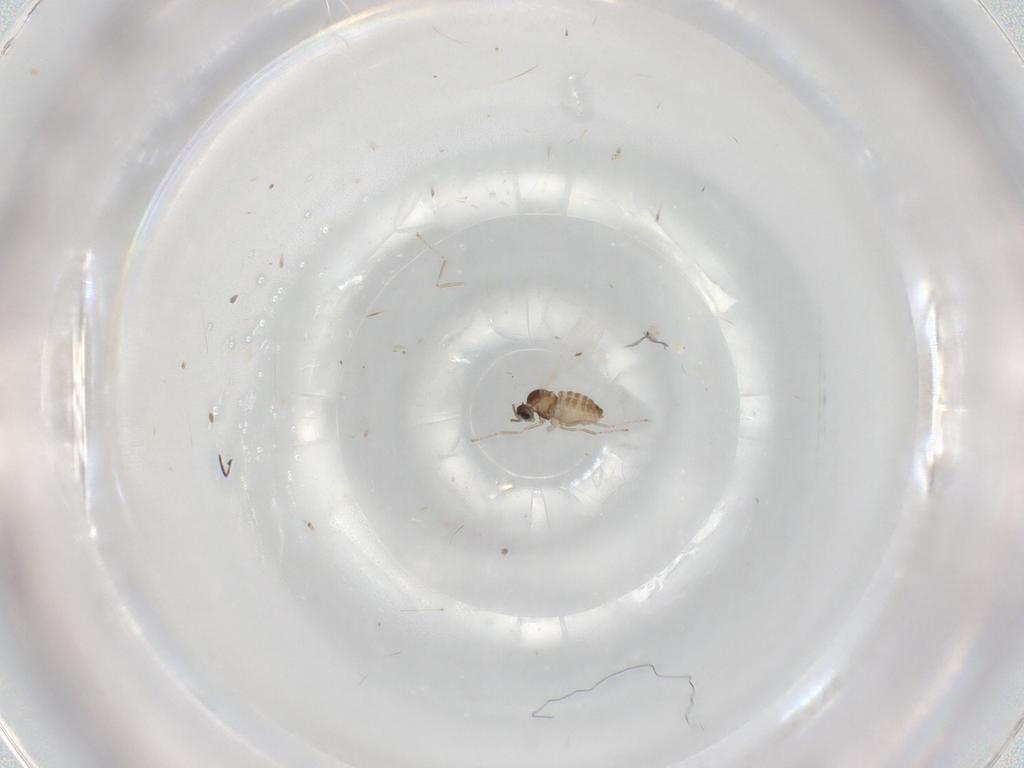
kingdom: Animalia
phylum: Arthropoda
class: Insecta
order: Diptera
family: Cecidomyiidae
